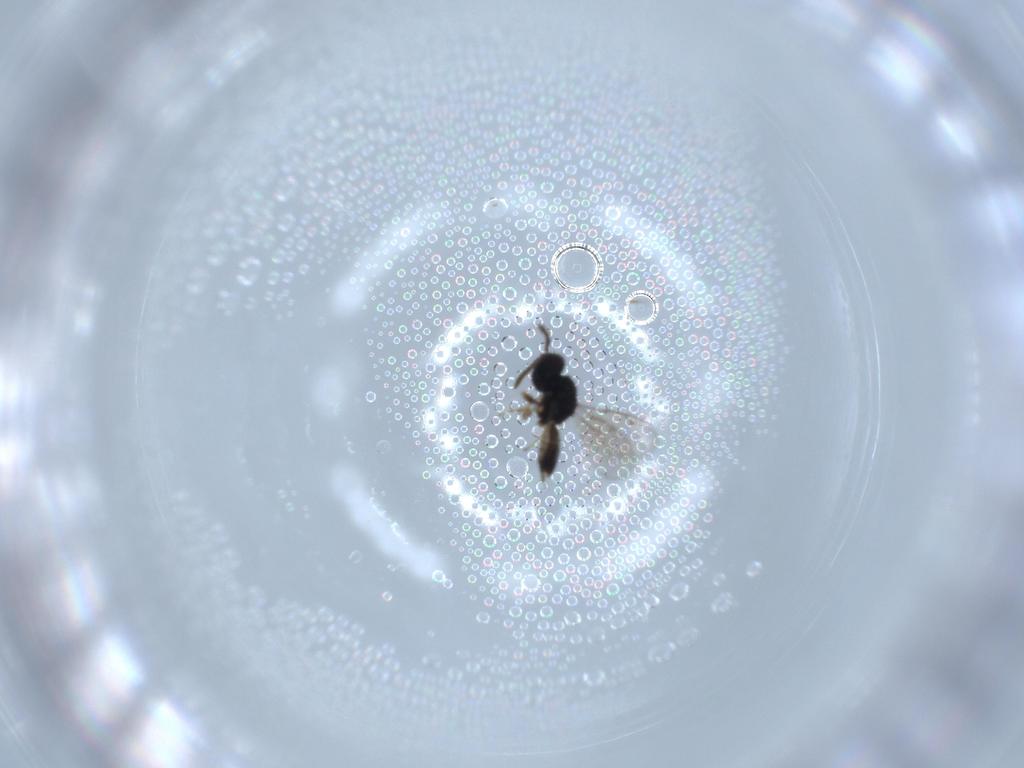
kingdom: Animalia
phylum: Arthropoda
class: Insecta
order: Hymenoptera
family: Pteromalidae
